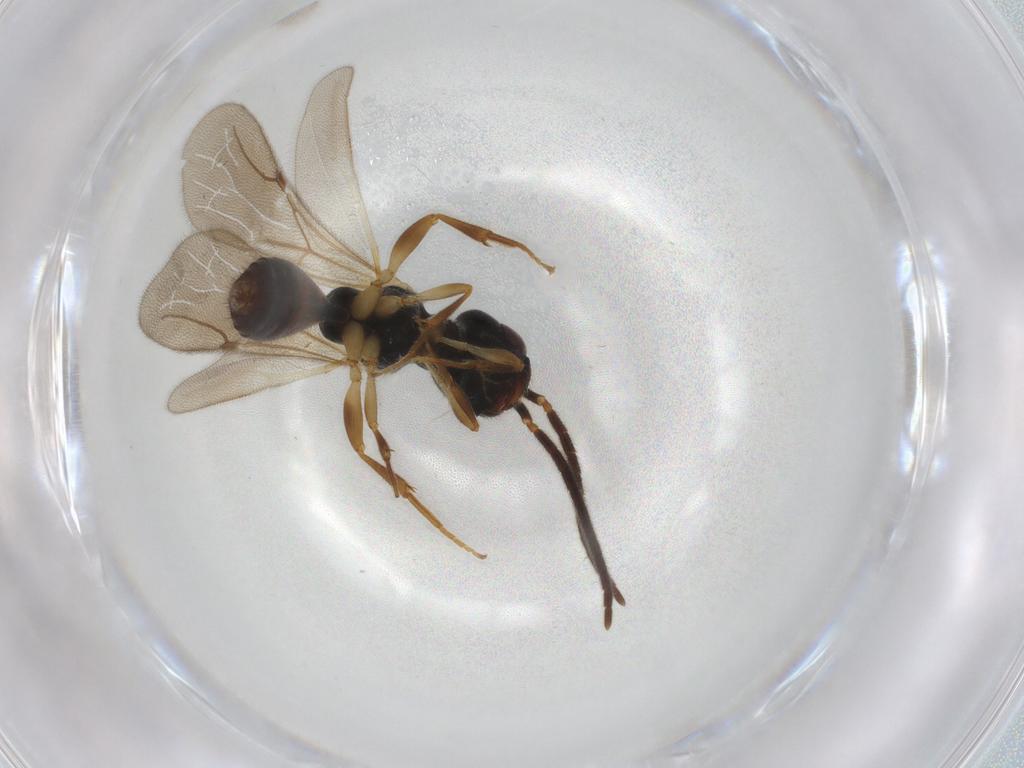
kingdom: Animalia
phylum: Arthropoda
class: Insecta
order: Hymenoptera
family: Bethylidae
